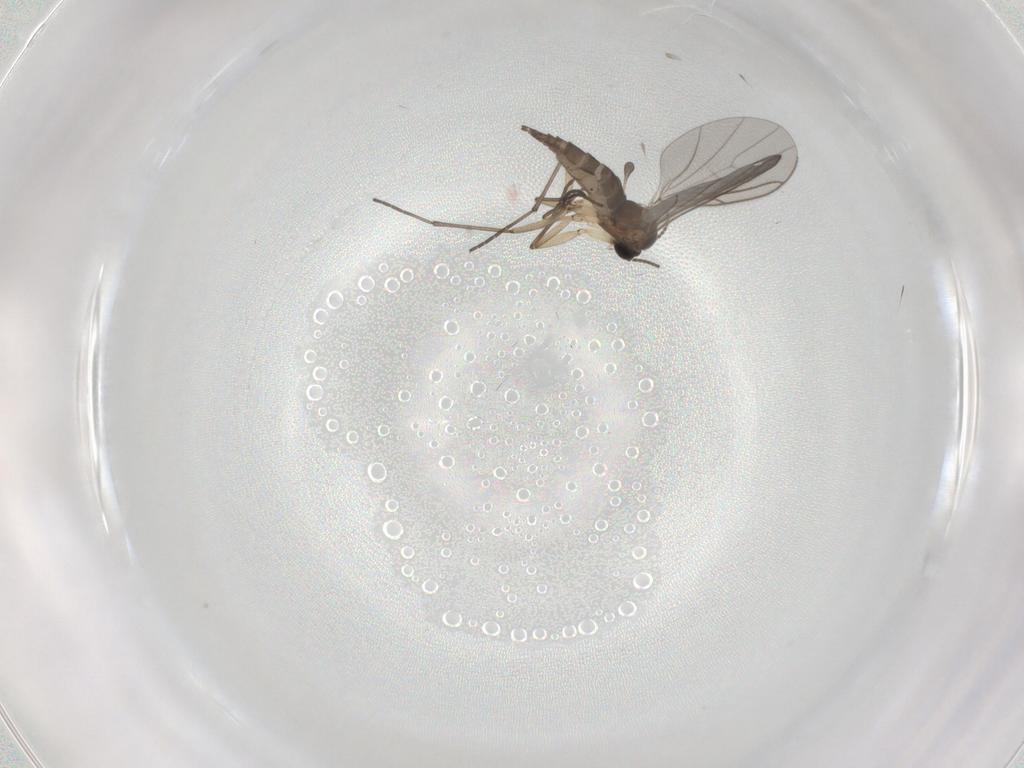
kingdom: Animalia
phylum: Arthropoda
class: Insecta
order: Diptera
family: Sciaridae
